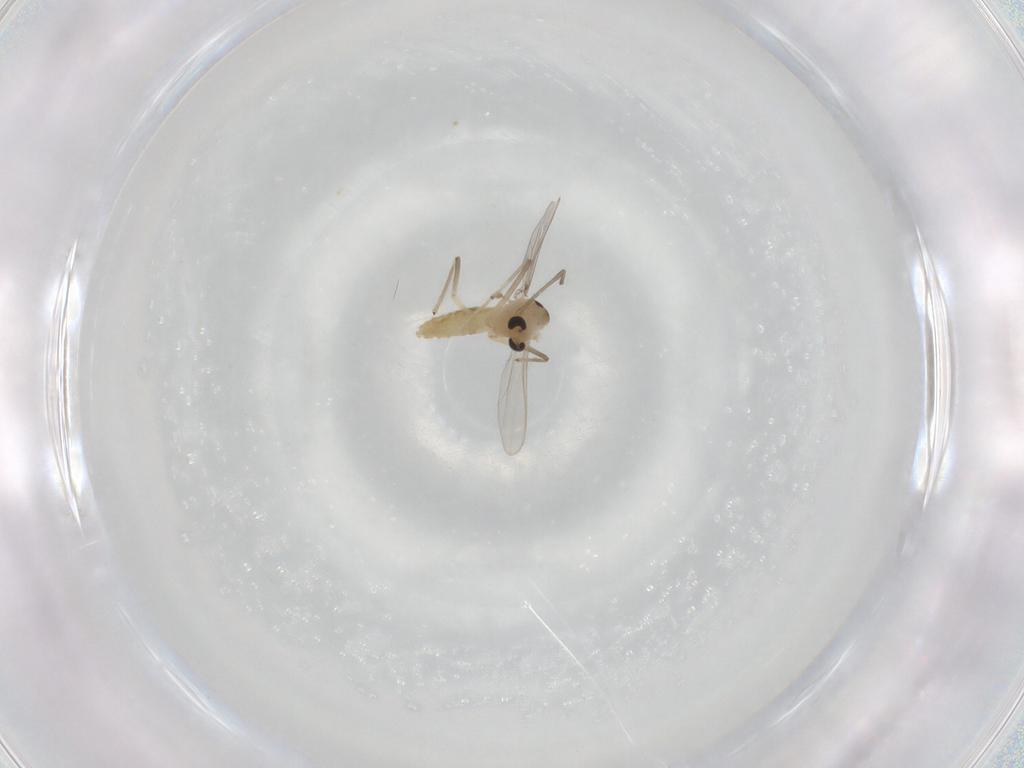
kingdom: Animalia
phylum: Arthropoda
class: Insecta
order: Diptera
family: Chironomidae
